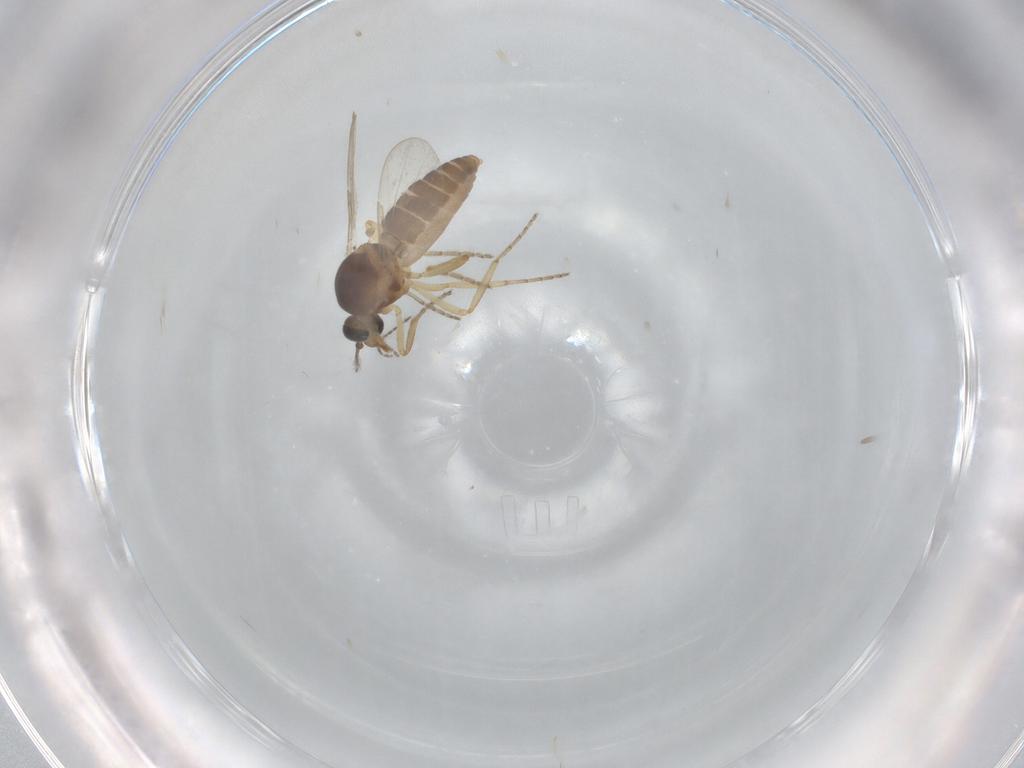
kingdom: Animalia
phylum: Arthropoda
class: Insecta
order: Diptera
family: Ceratopogonidae
